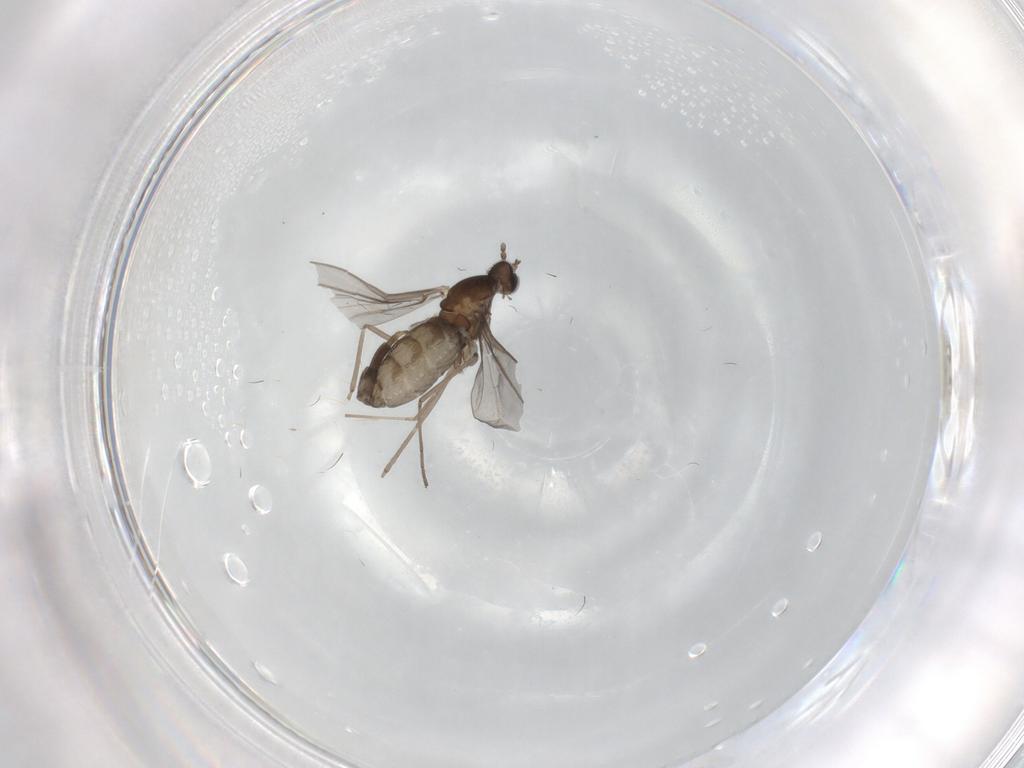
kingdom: Animalia
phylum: Arthropoda
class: Insecta
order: Diptera
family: Cecidomyiidae
